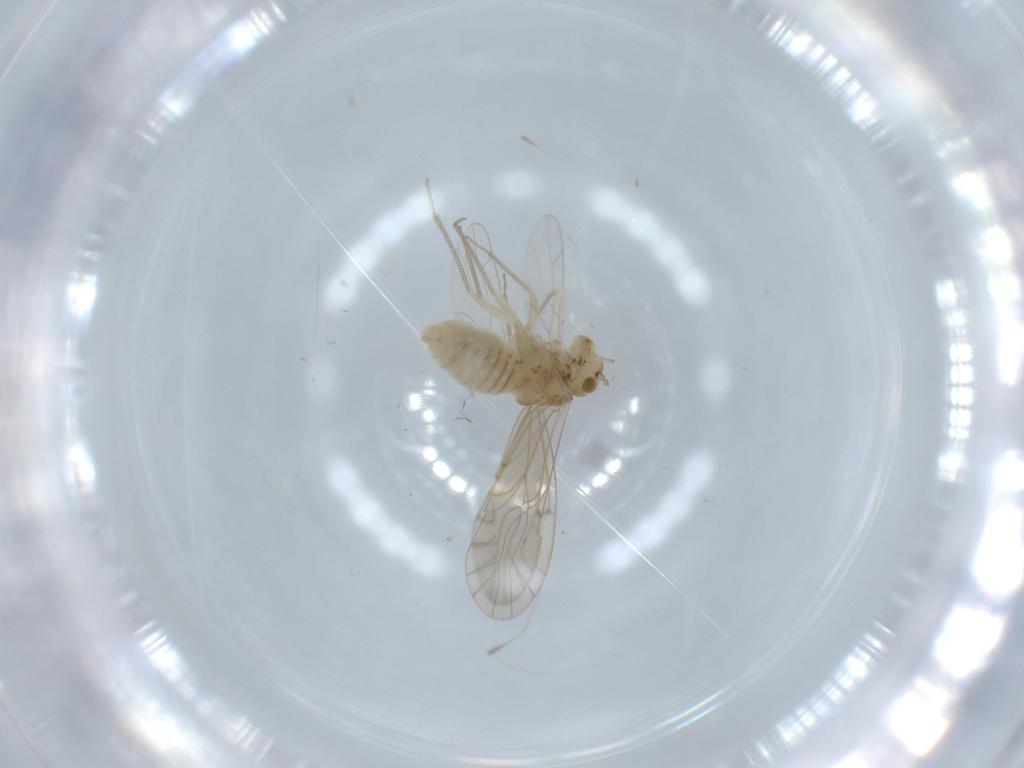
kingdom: Animalia
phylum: Arthropoda
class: Insecta
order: Psocodea
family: Lachesillidae
